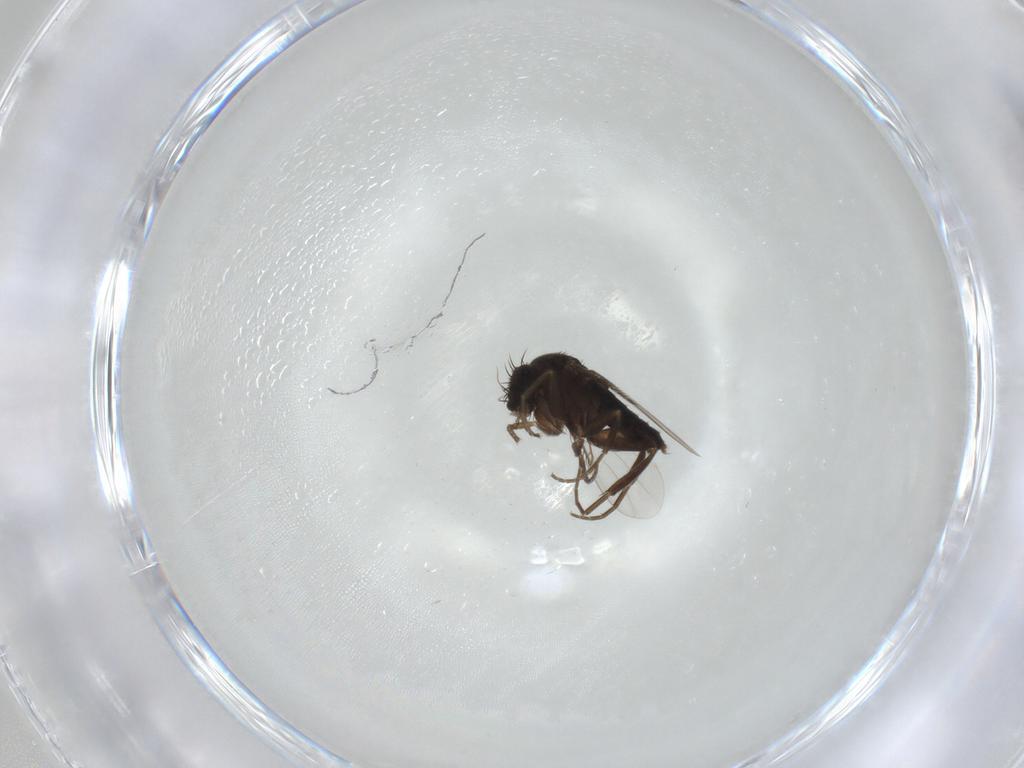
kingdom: Animalia
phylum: Arthropoda
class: Insecta
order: Diptera
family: Phoridae
